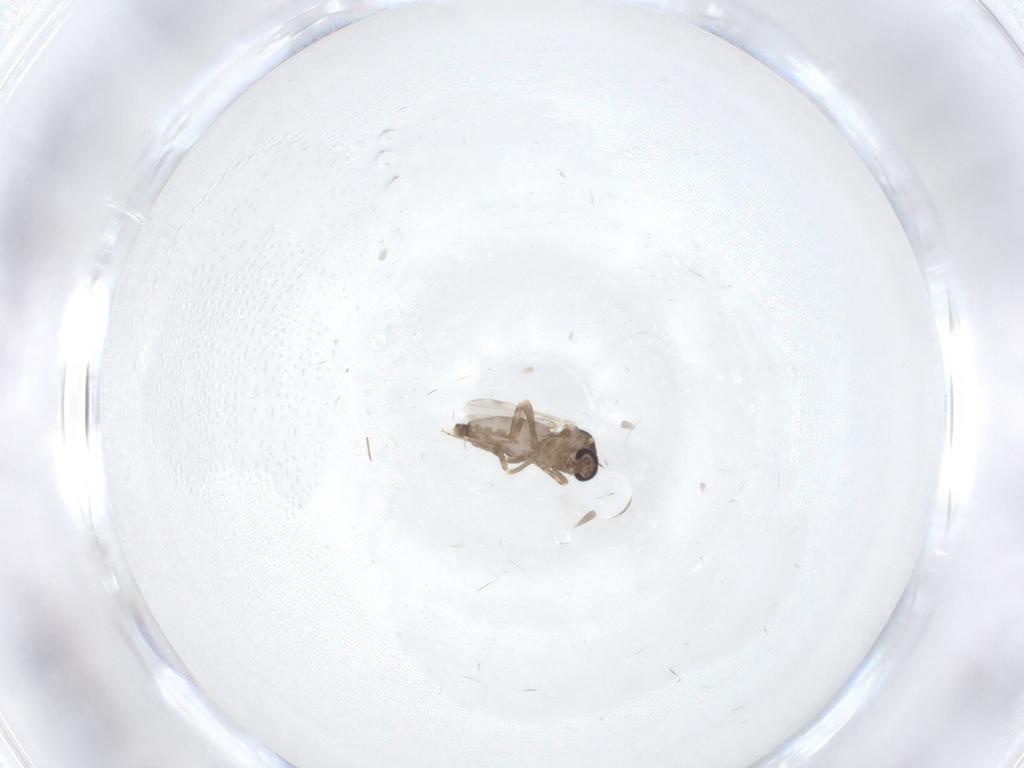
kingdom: Animalia
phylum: Arthropoda
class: Insecta
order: Diptera
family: Ceratopogonidae
